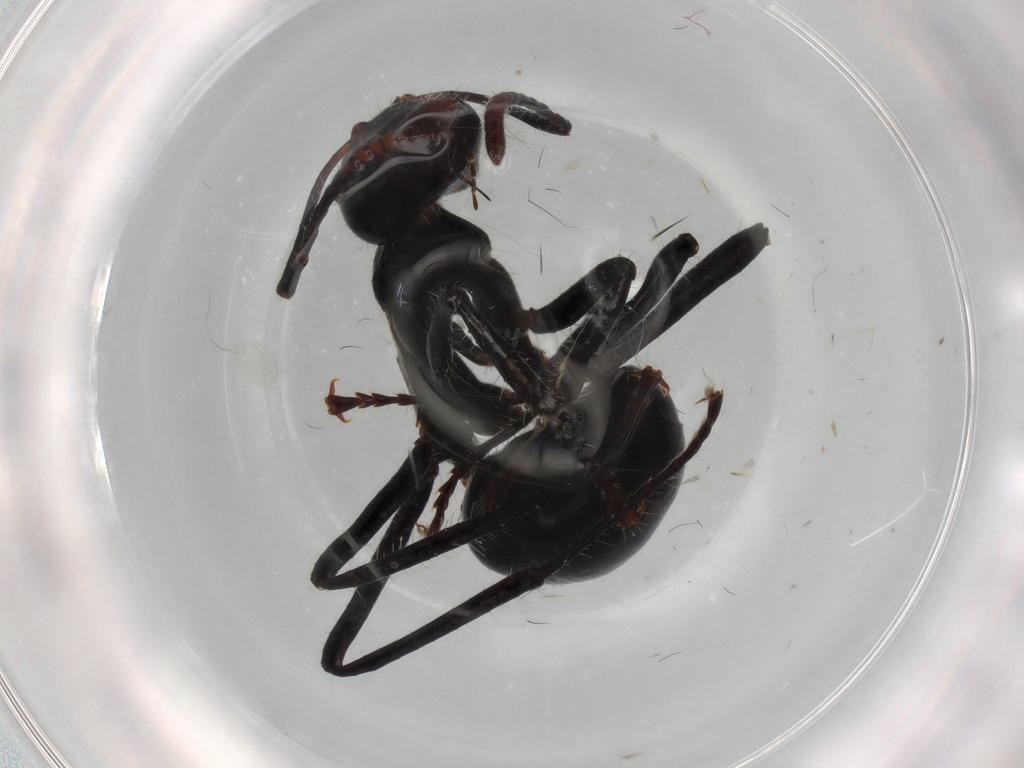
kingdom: Animalia
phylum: Arthropoda
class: Insecta
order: Hymenoptera
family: Formicidae
